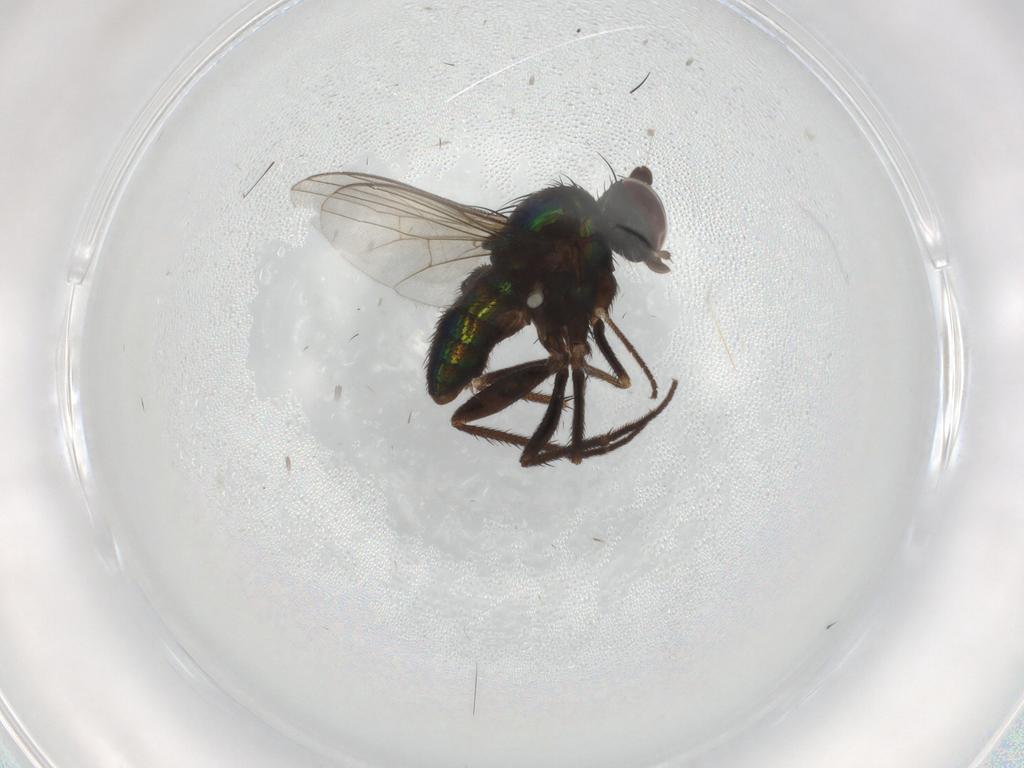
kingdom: Animalia
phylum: Arthropoda
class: Insecta
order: Diptera
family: Dolichopodidae
